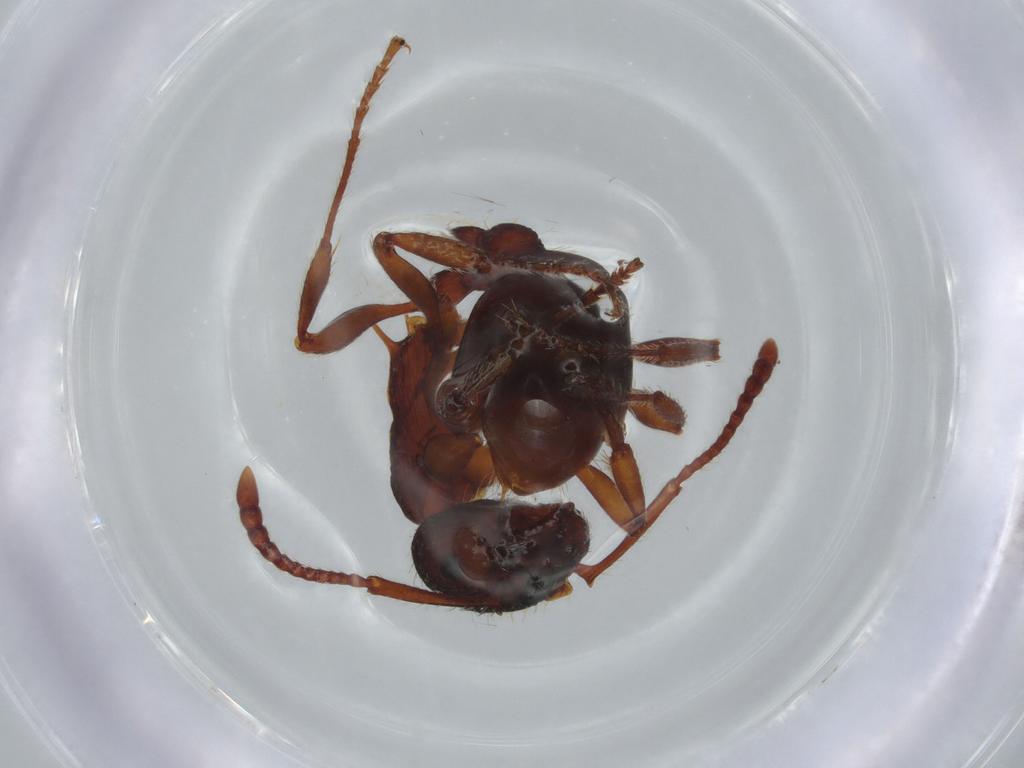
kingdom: Animalia
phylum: Arthropoda
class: Insecta
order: Hymenoptera
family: Formicidae
